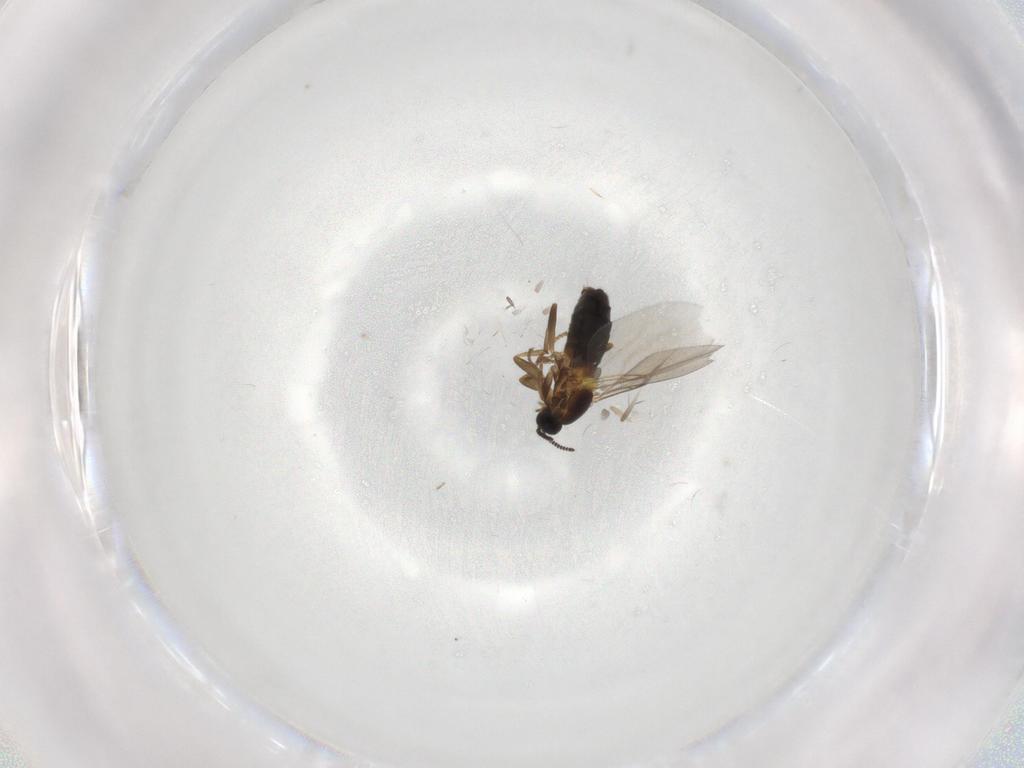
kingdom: Animalia
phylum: Arthropoda
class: Insecta
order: Diptera
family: Scatopsidae
